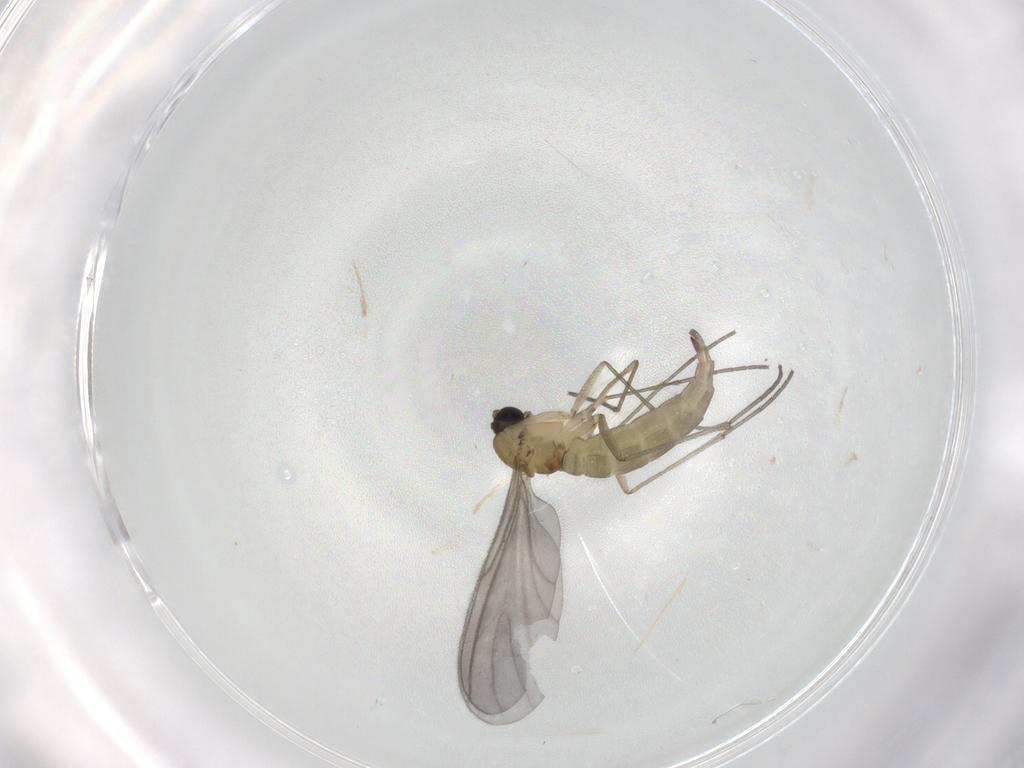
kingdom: Animalia
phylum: Arthropoda
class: Insecta
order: Diptera
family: Sciaridae
